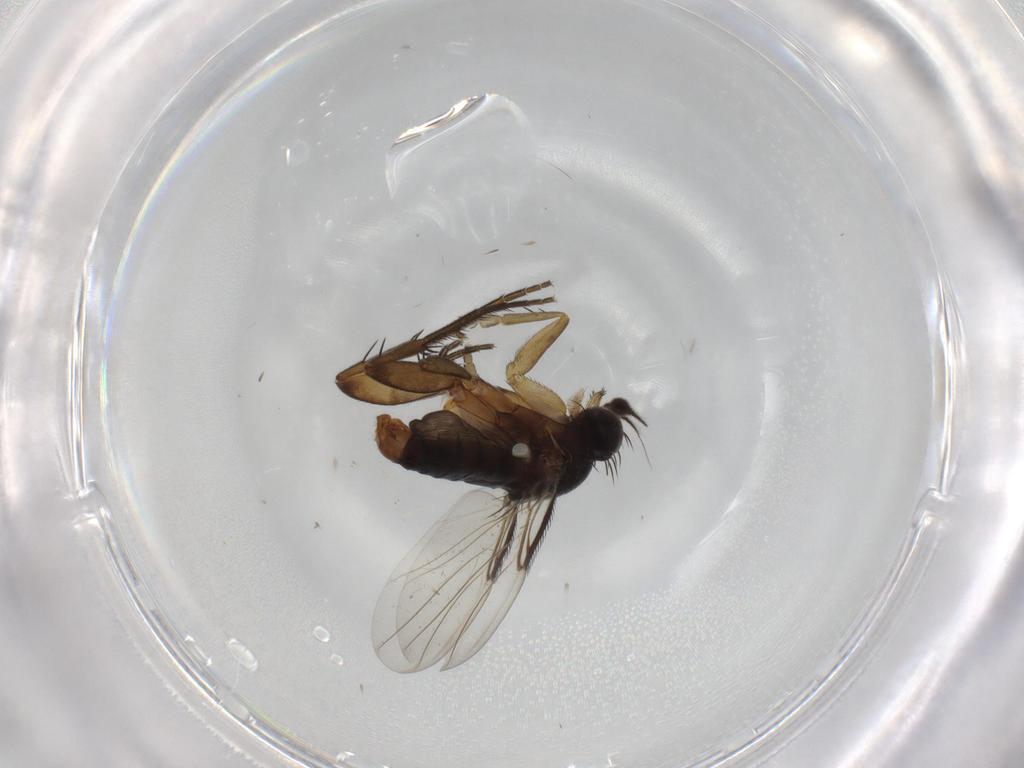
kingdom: Animalia
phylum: Arthropoda
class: Insecta
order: Diptera
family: Phoridae
